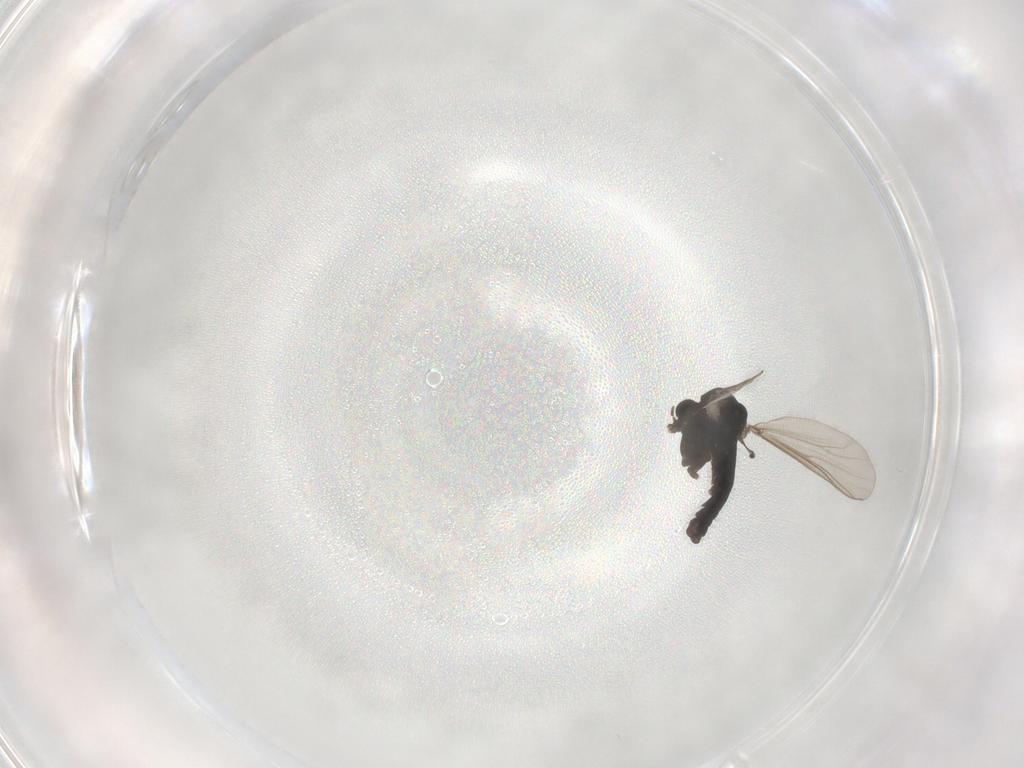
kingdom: Animalia
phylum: Arthropoda
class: Insecta
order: Diptera
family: Chironomidae
